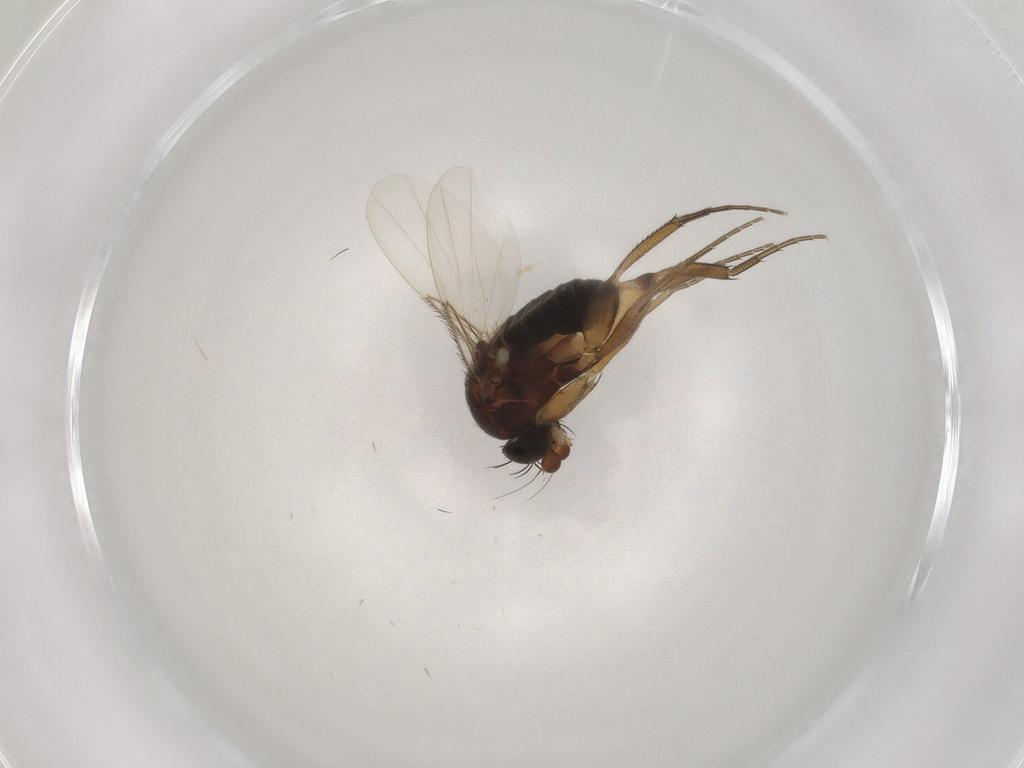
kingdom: Animalia
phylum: Arthropoda
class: Insecta
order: Diptera
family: Phoridae
